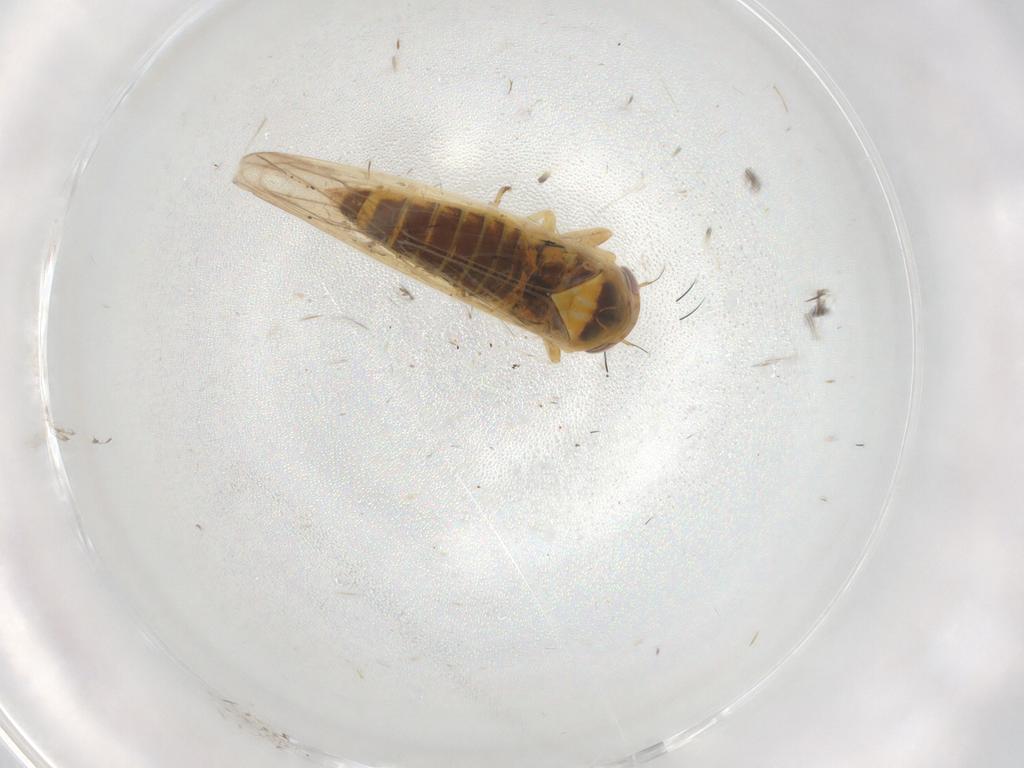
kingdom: Animalia
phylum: Arthropoda
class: Insecta
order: Hemiptera
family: Cicadellidae
